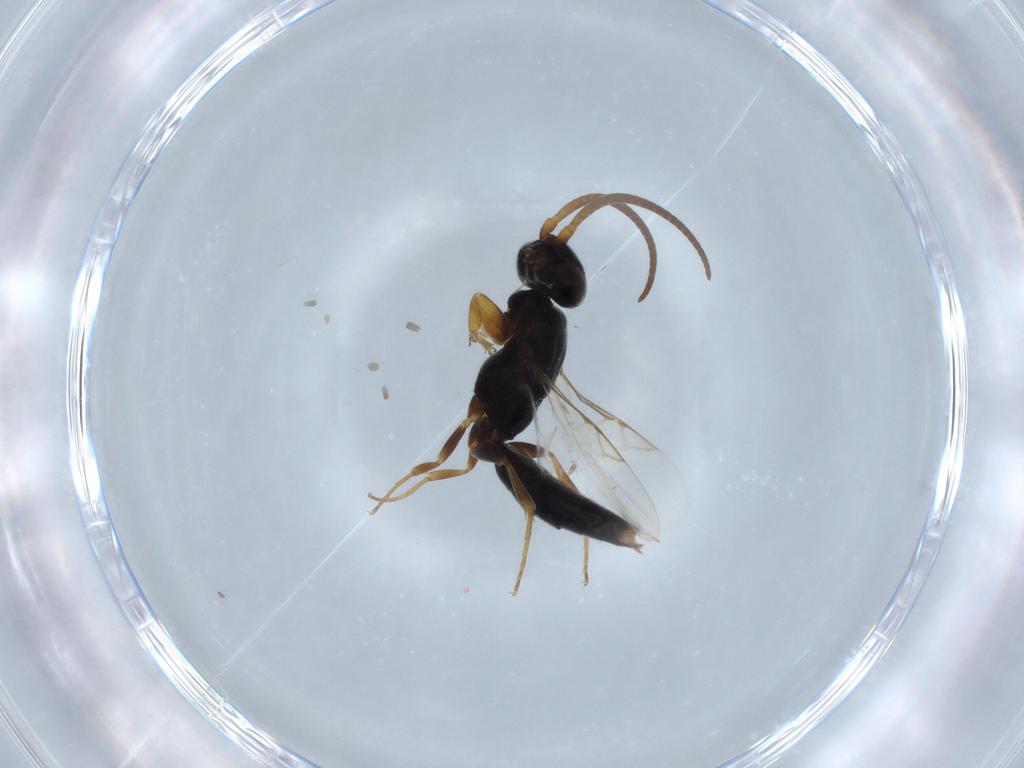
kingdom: Animalia
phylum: Arthropoda
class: Insecta
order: Hymenoptera
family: Sclerogibbidae
